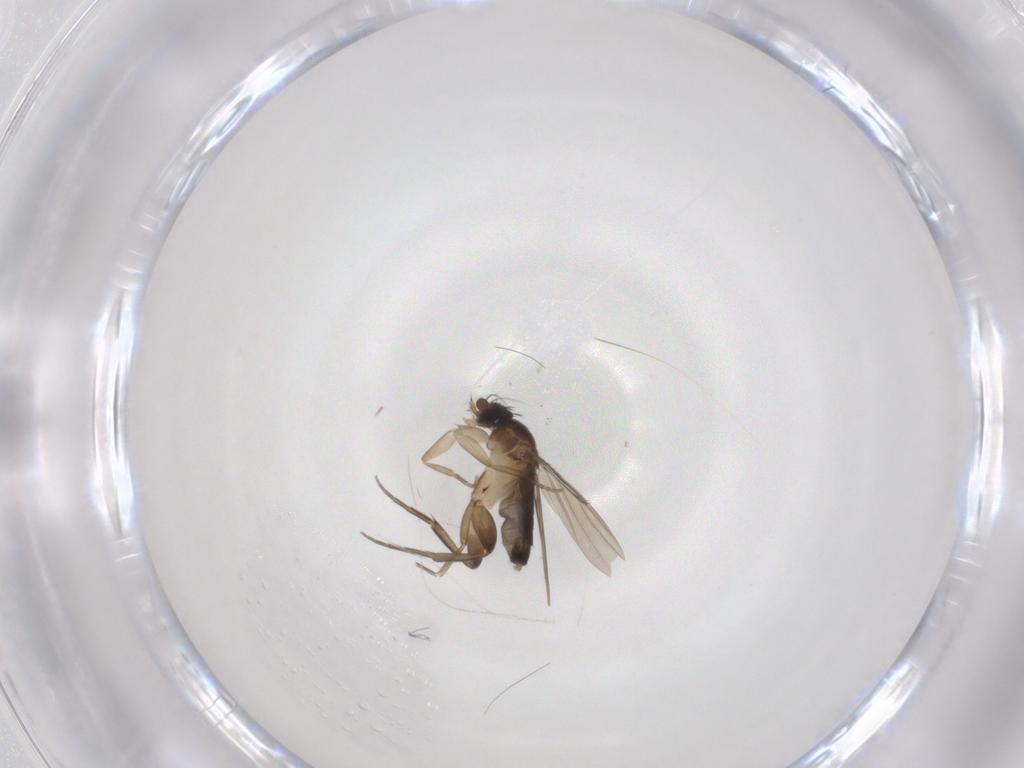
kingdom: Animalia
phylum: Arthropoda
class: Insecta
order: Diptera
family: Phoridae
